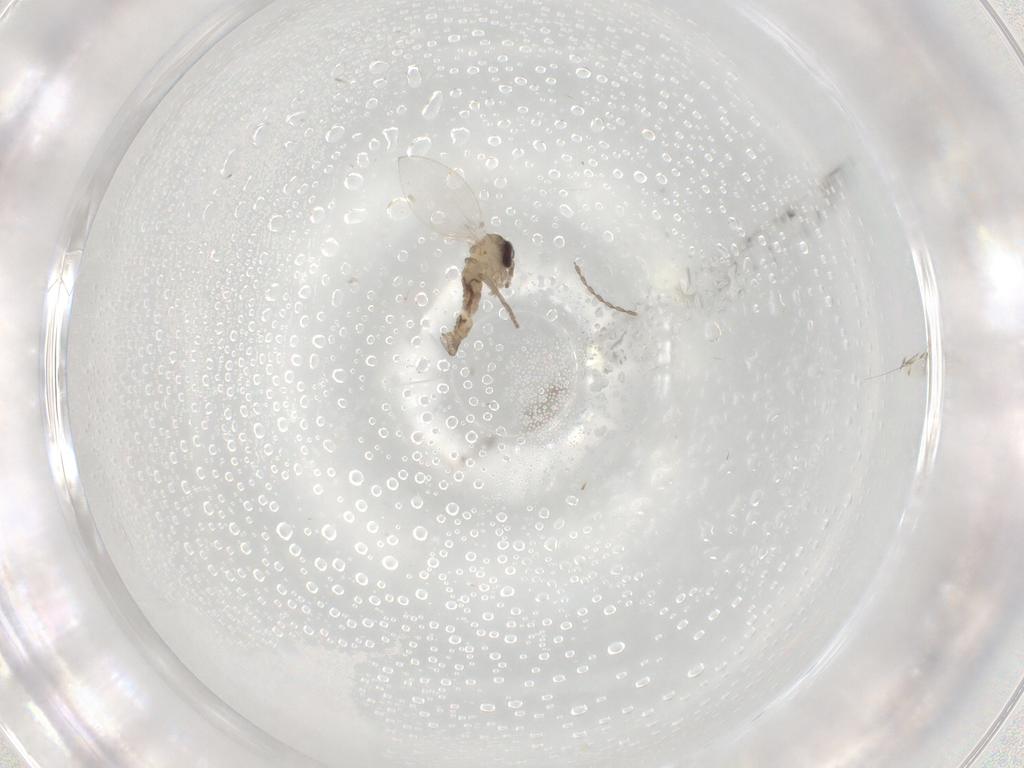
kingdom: Animalia
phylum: Arthropoda
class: Insecta
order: Diptera
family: Psychodidae
